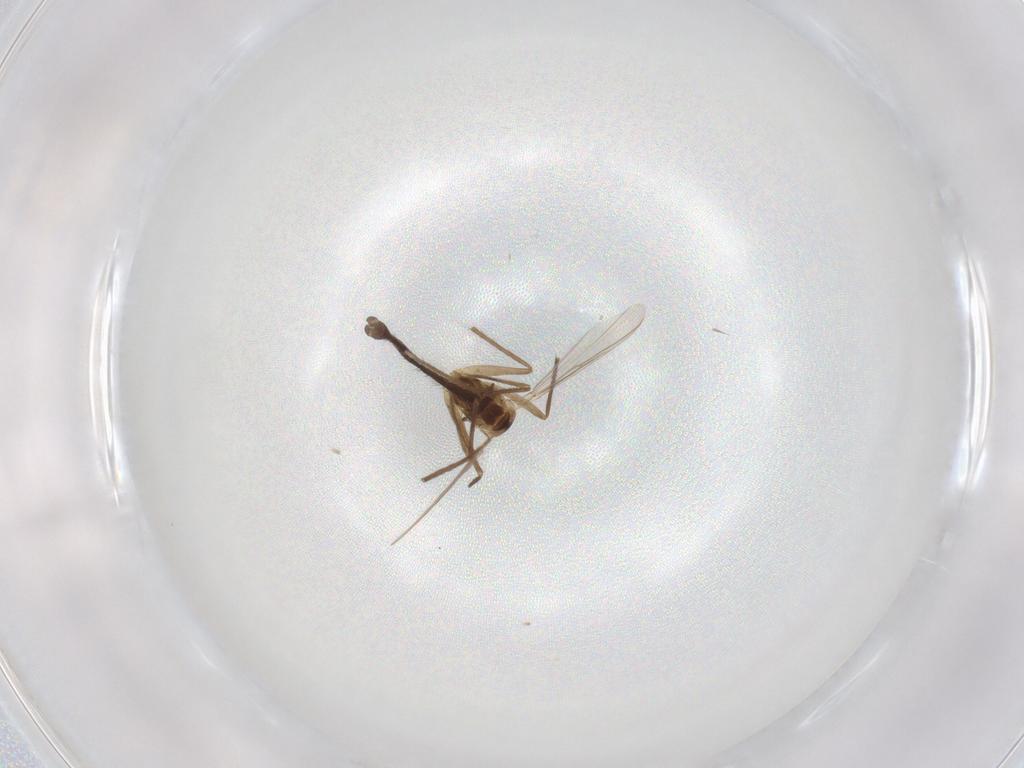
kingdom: Animalia
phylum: Arthropoda
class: Insecta
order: Diptera
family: Chironomidae
